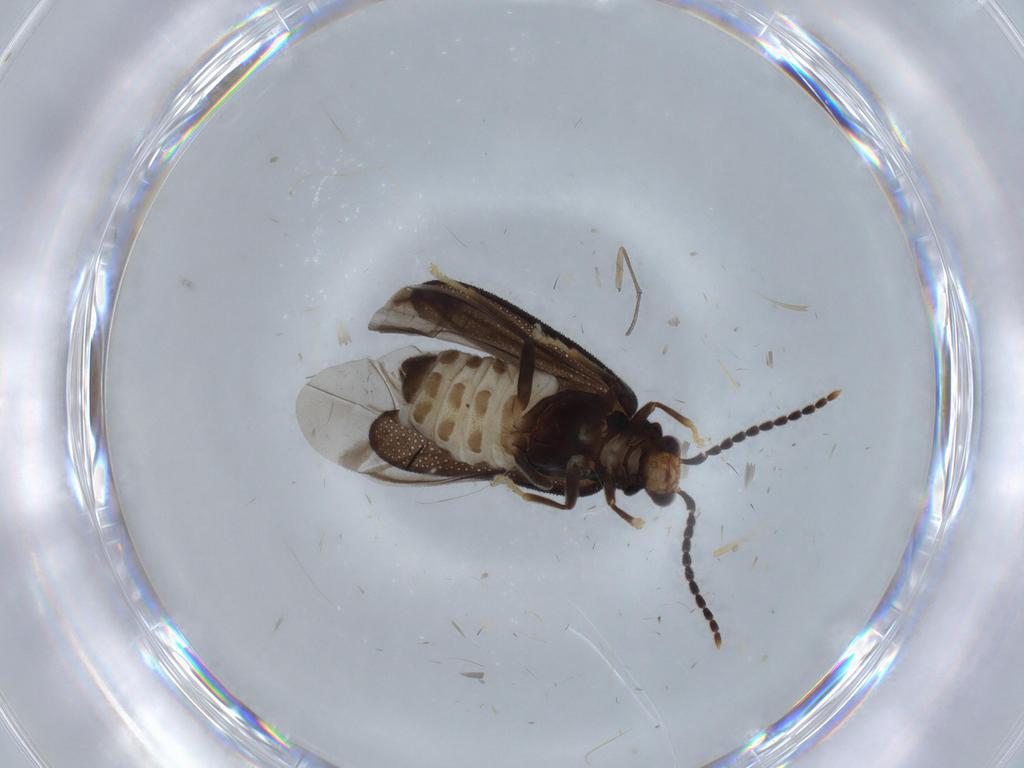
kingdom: Animalia
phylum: Arthropoda
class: Insecta
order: Coleoptera
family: Cantharidae
